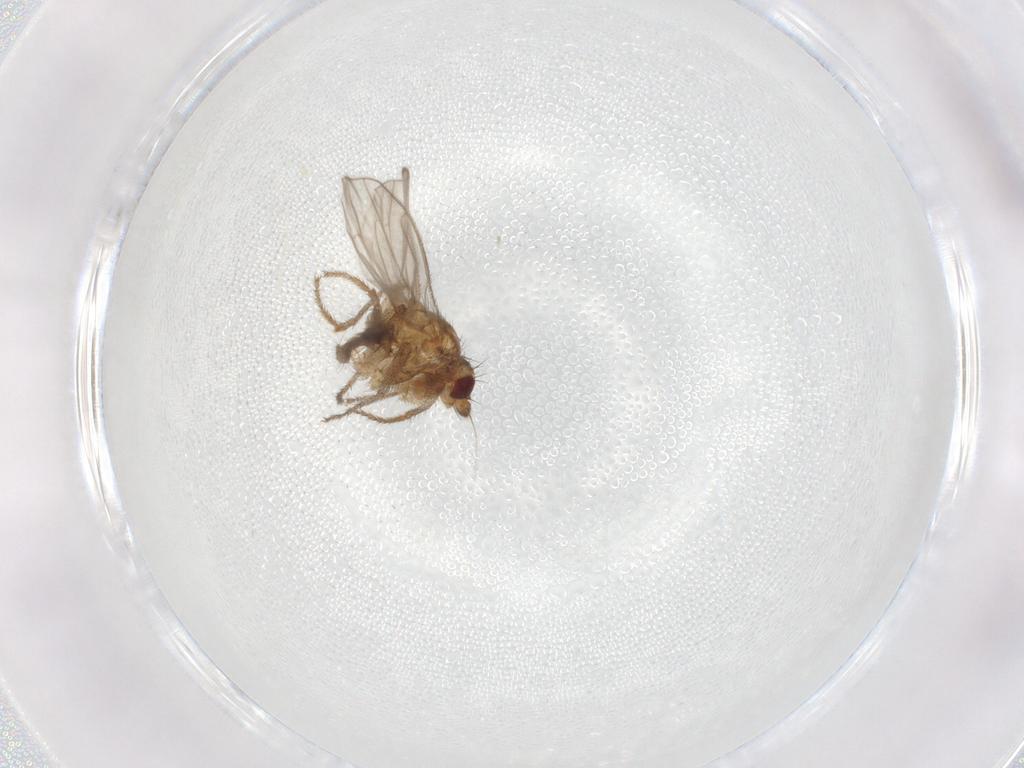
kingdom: Animalia
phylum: Arthropoda
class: Insecta
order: Diptera
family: Sphaeroceridae
